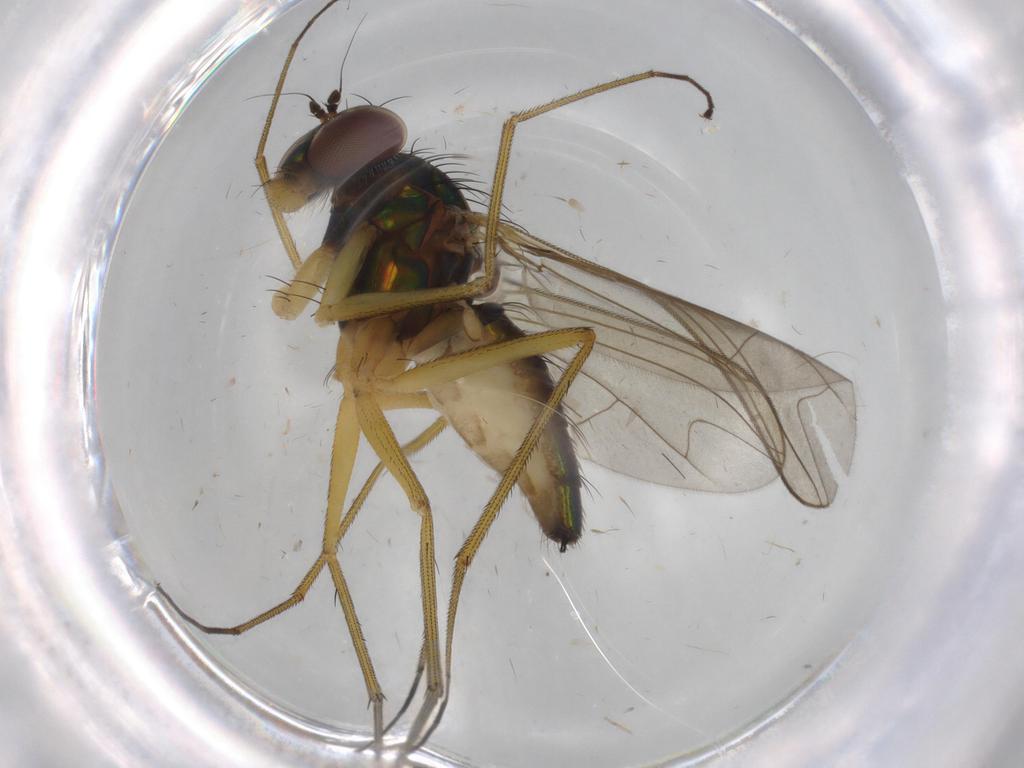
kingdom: Animalia
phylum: Arthropoda
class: Insecta
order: Diptera
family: Dolichopodidae
